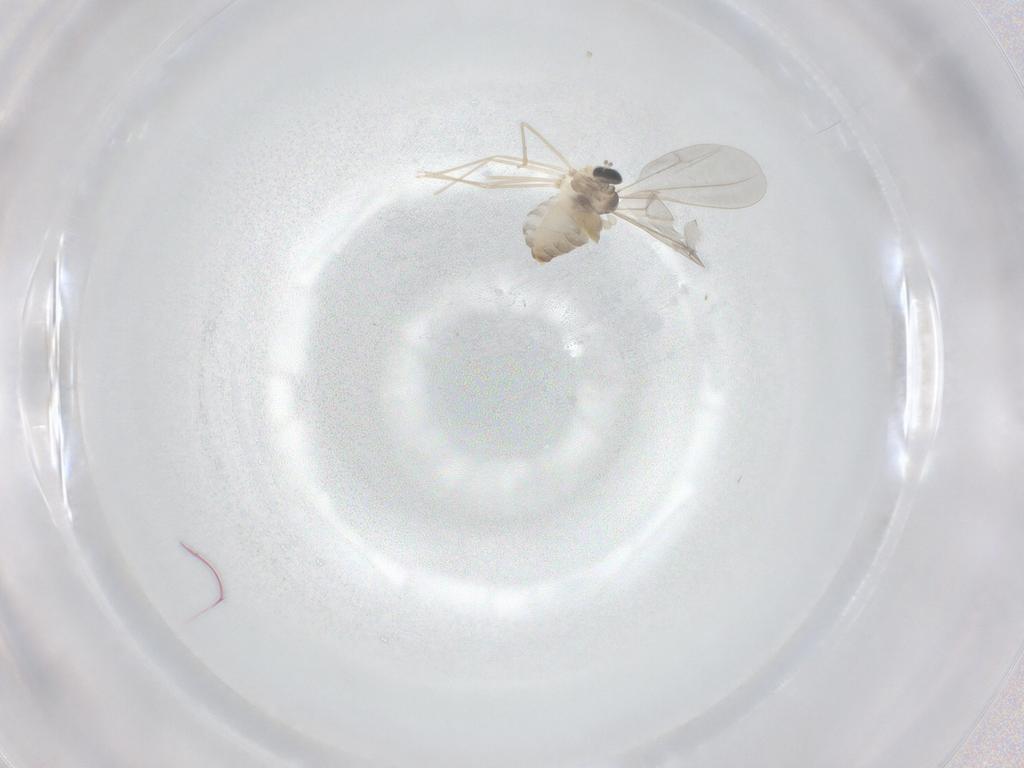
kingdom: Animalia
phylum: Arthropoda
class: Insecta
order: Diptera
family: Cecidomyiidae
